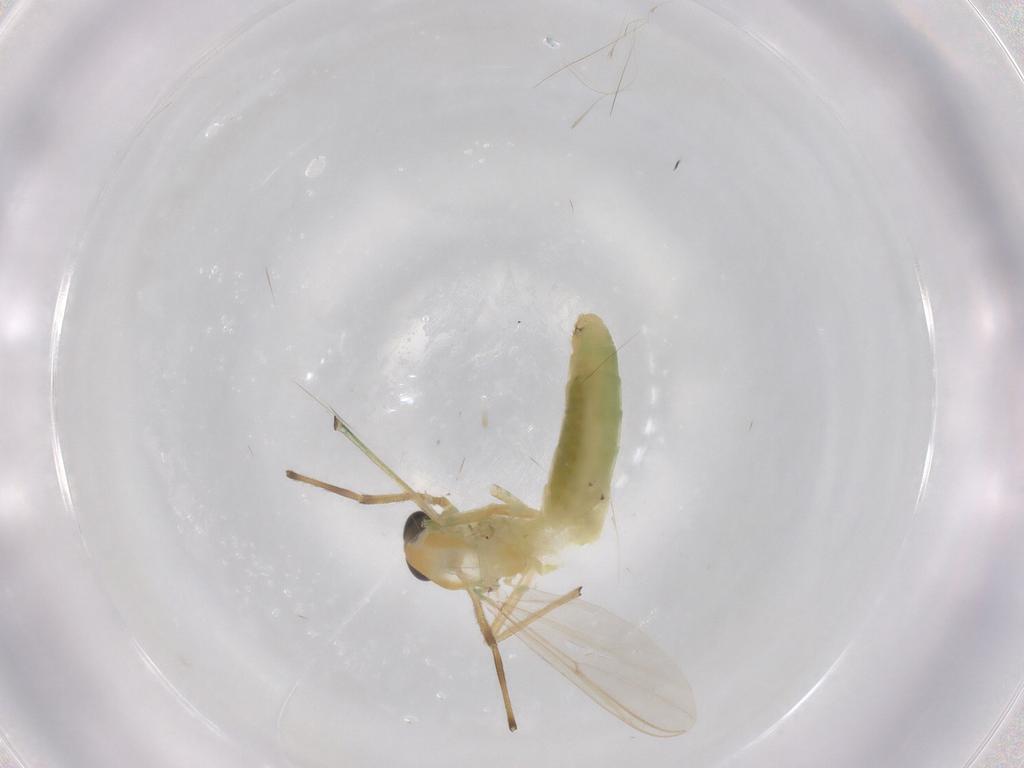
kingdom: Animalia
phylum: Arthropoda
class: Insecta
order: Diptera
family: Chironomidae
